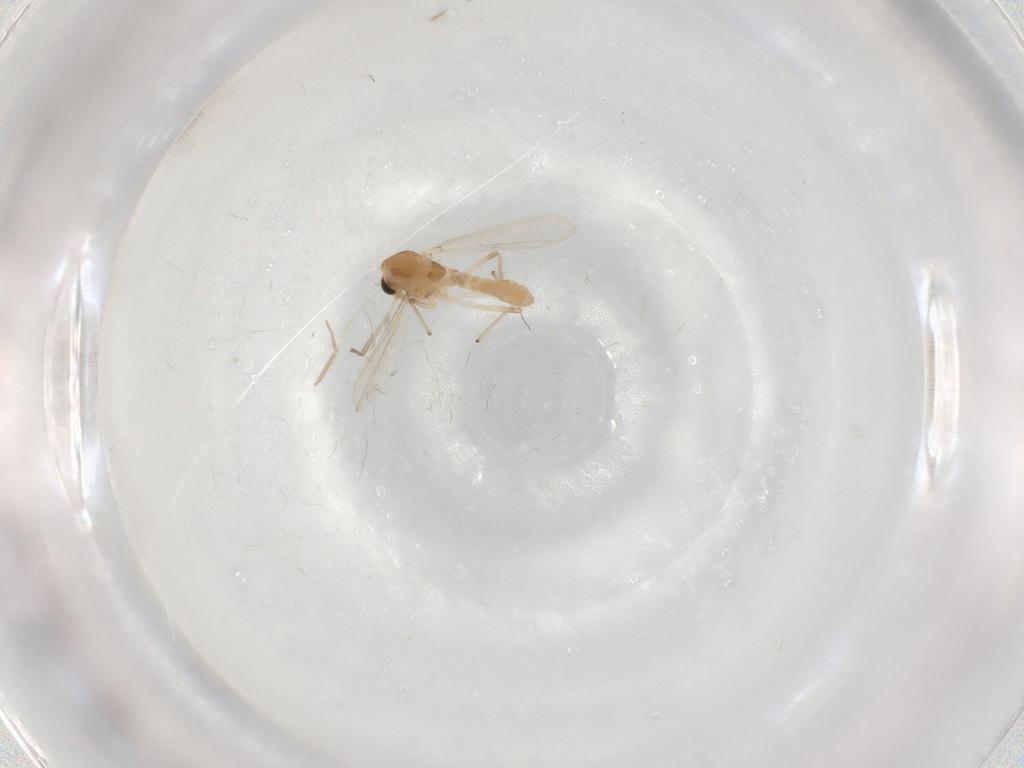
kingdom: Animalia
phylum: Arthropoda
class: Insecta
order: Diptera
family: Chironomidae
